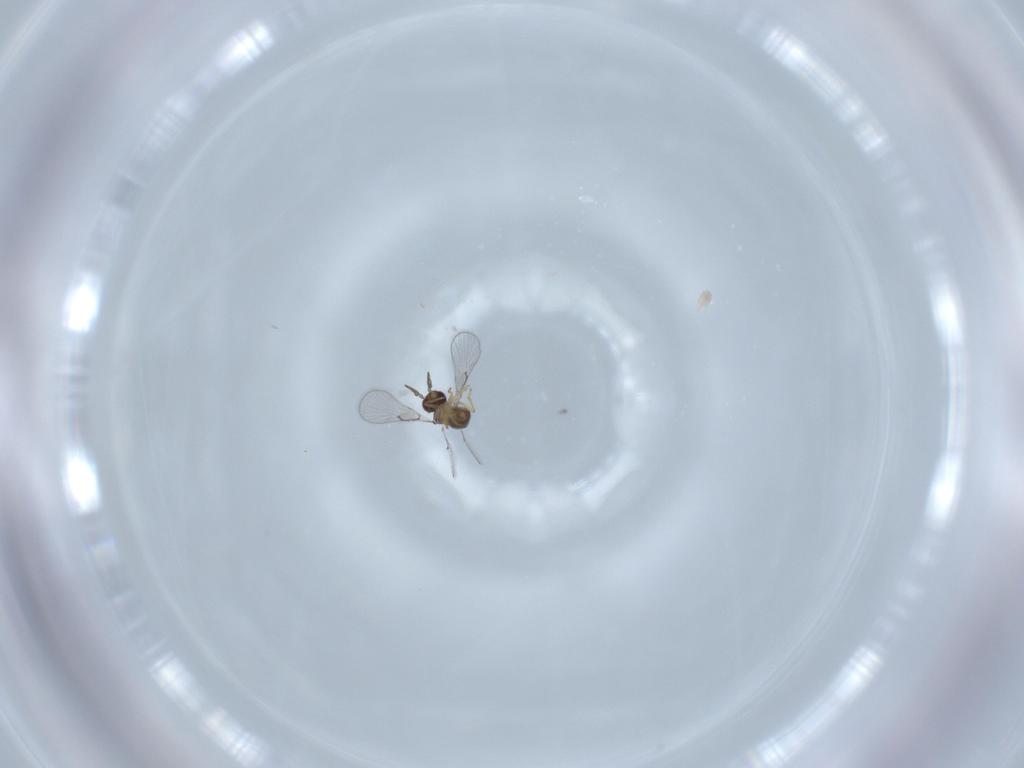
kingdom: Animalia
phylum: Arthropoda
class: Insecta
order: Hymenoptera
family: Trichogrammatidae
